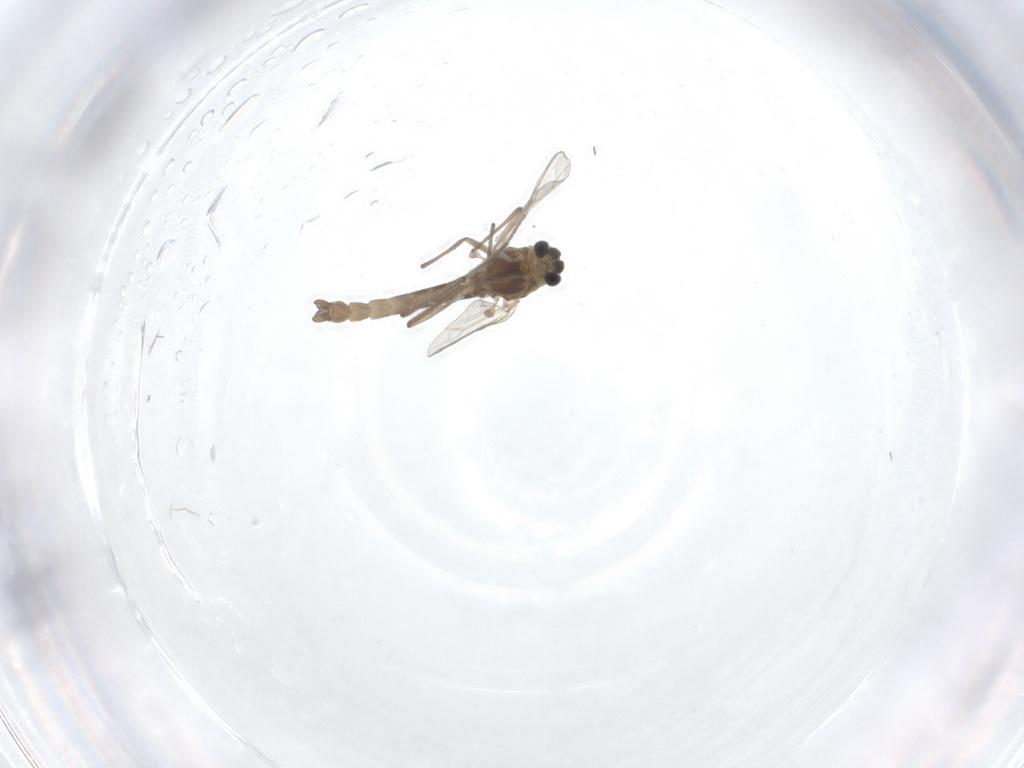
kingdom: Animalia
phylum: Arthropoda
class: Insecta
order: Diptera
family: Chironomidae
